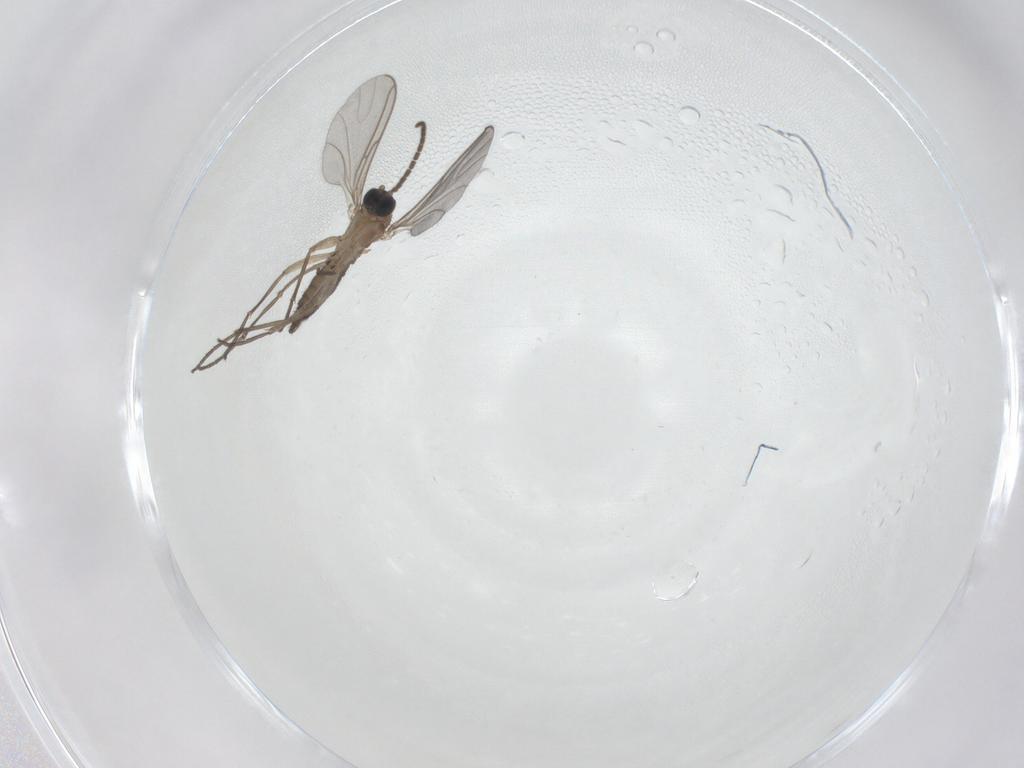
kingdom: Animalia
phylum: Arthropoda
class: Insecta
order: Diptera
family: Sciaridae
